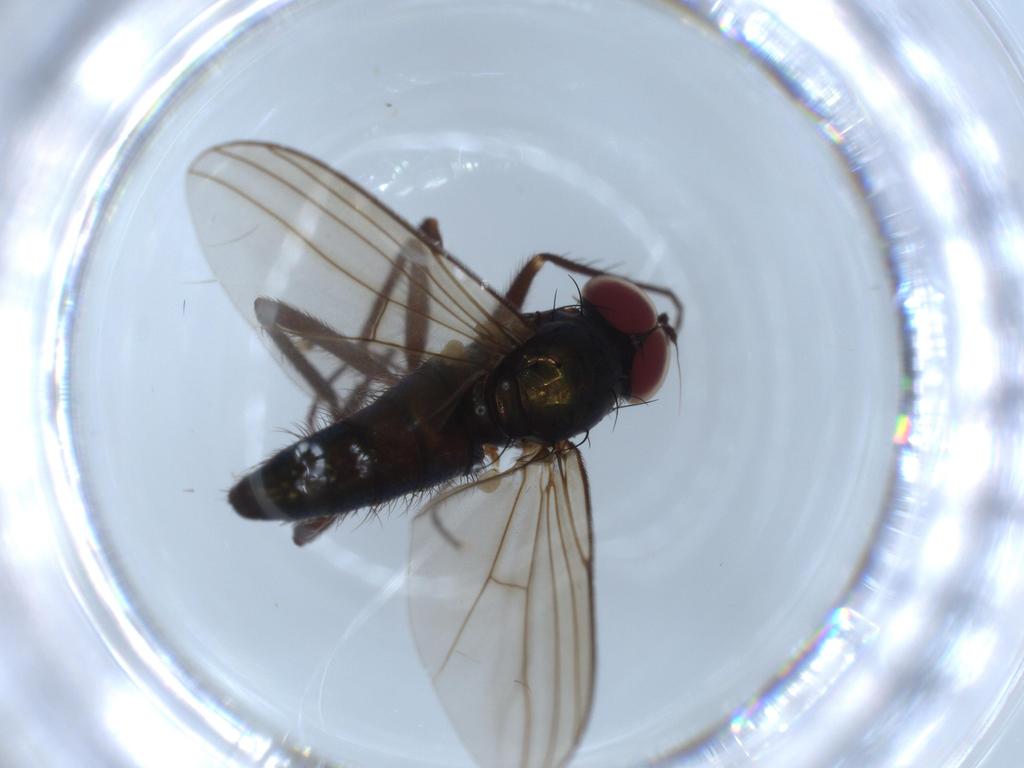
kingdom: Animalia
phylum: Arthropoda
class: Insecta
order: Diptera
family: Dolichopodidae
